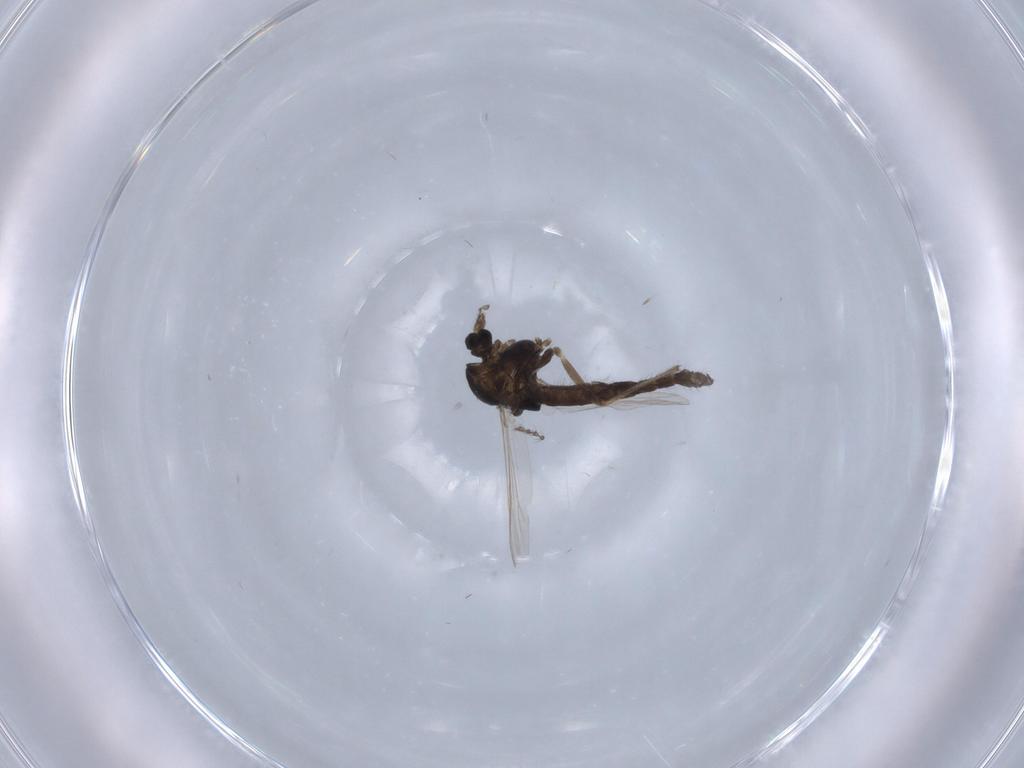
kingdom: Animalia
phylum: Arthropoda
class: Insecta
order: Diptera
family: Chironomidae
